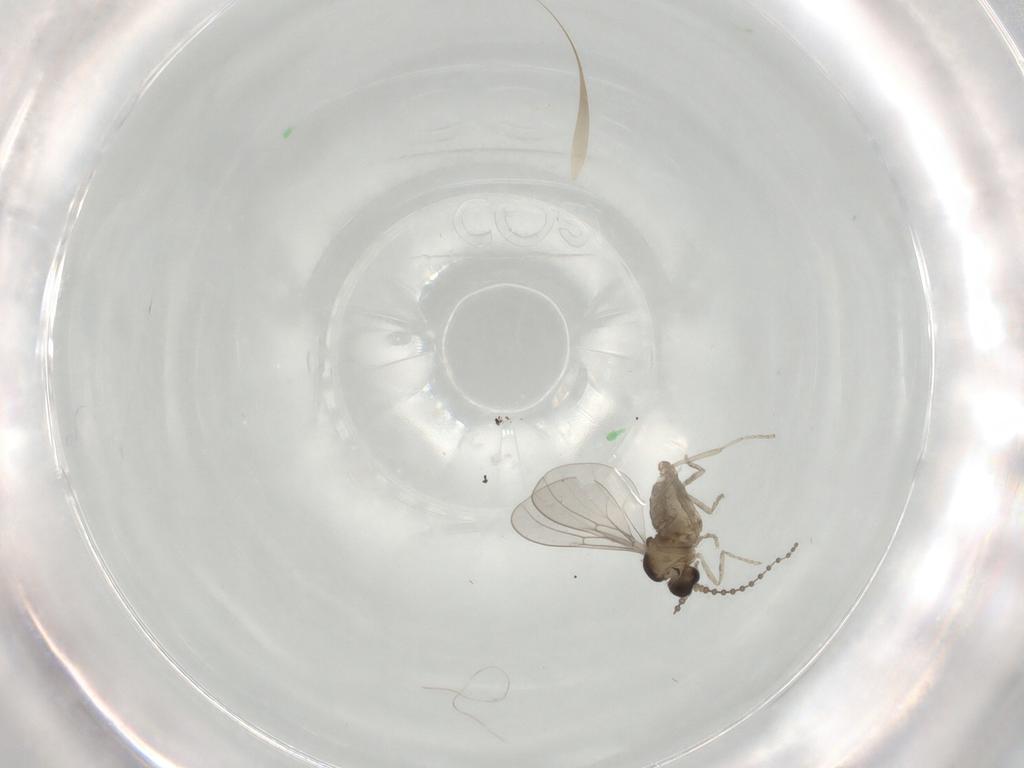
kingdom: Animalia
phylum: Arthropoda
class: Insecta
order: Diptera
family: Cecidomyiidae
